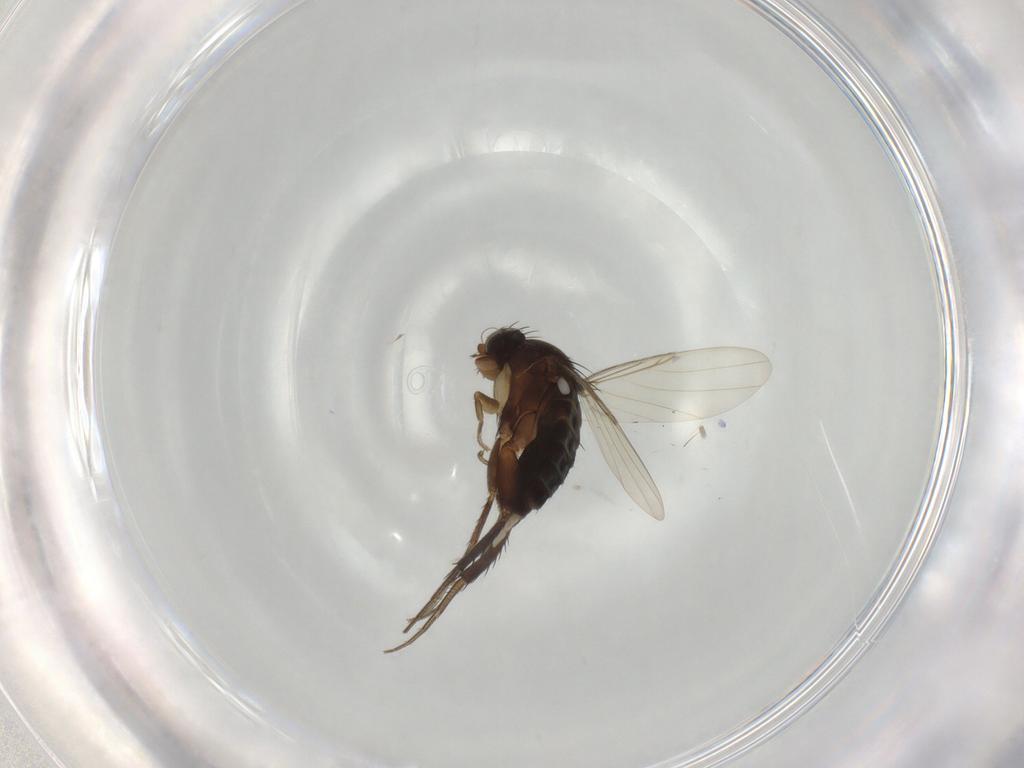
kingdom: Animalia
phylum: Arthropoda
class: Insecta
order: Diptera
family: Phoridae
